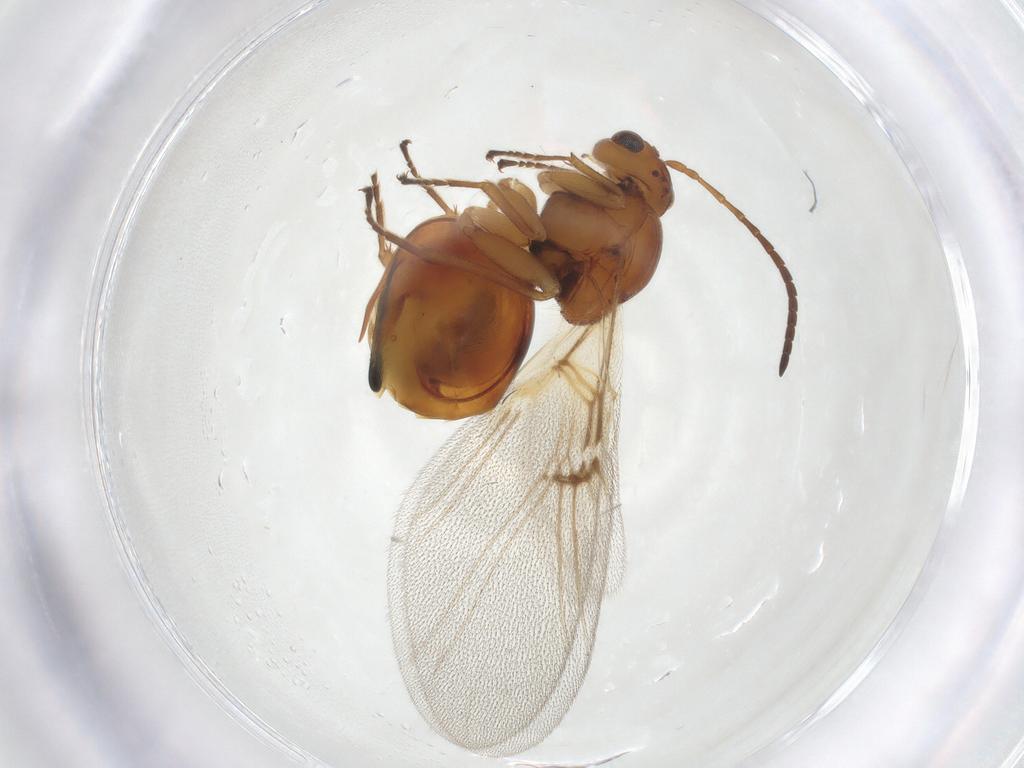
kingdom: Animalia
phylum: Arthropoda
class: Insecta
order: Hymenoptera
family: Cynipidae
